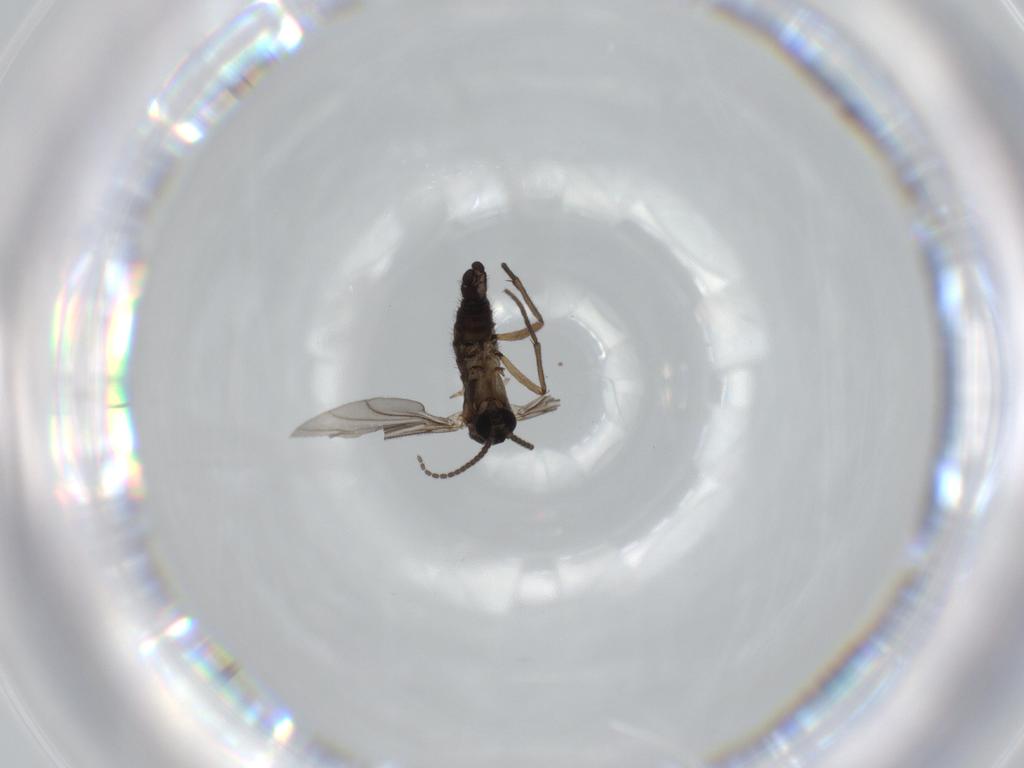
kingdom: Animalia
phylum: Arthropoda
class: Insecta
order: Diptera
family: Sciaridae
